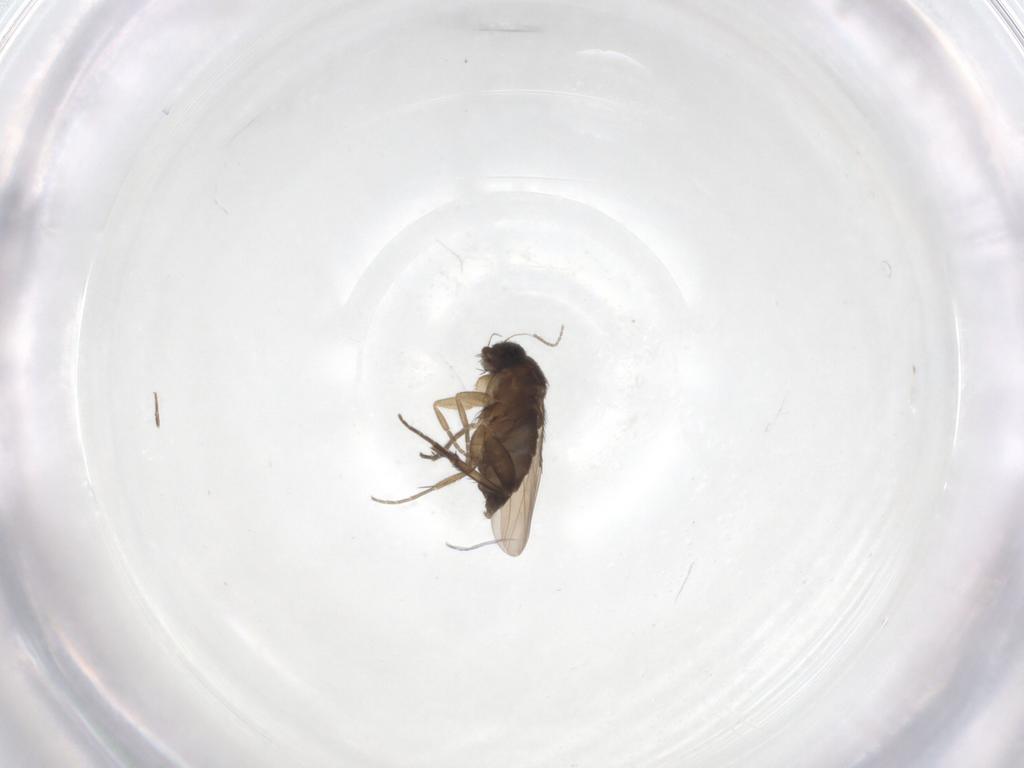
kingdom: Animalia
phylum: Arthropoda
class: Insecta
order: Diptera
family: Phoridae
